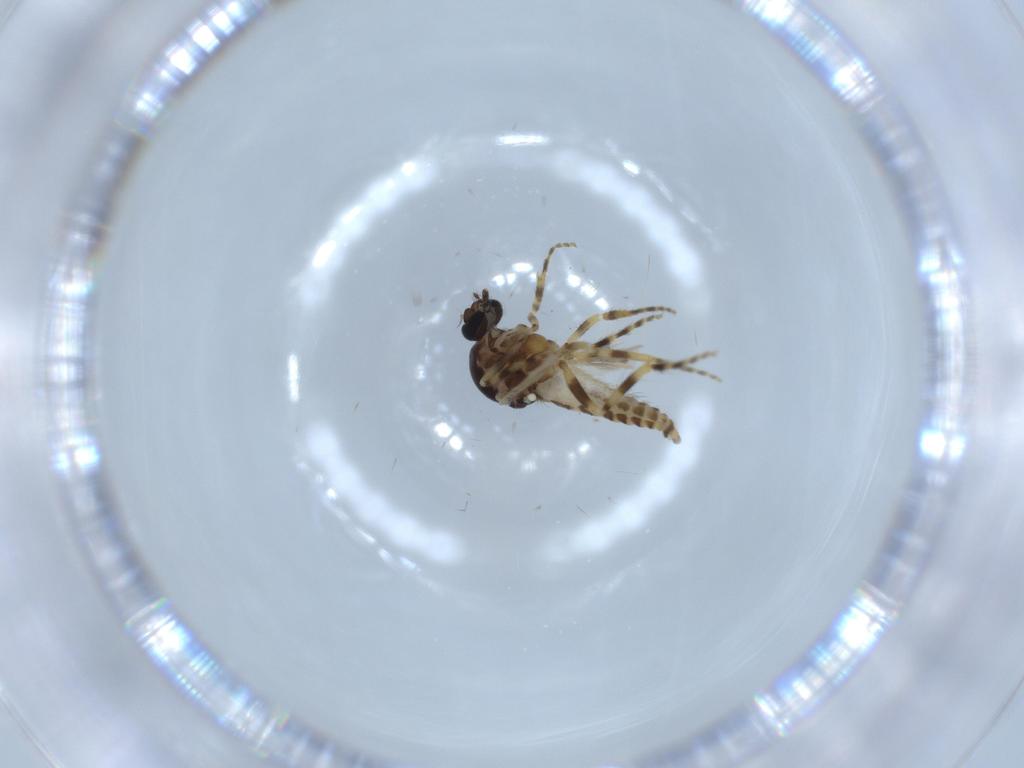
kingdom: Animalia
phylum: Arthropoda
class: Insecta
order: Diptera
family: Ceratopogonidae
